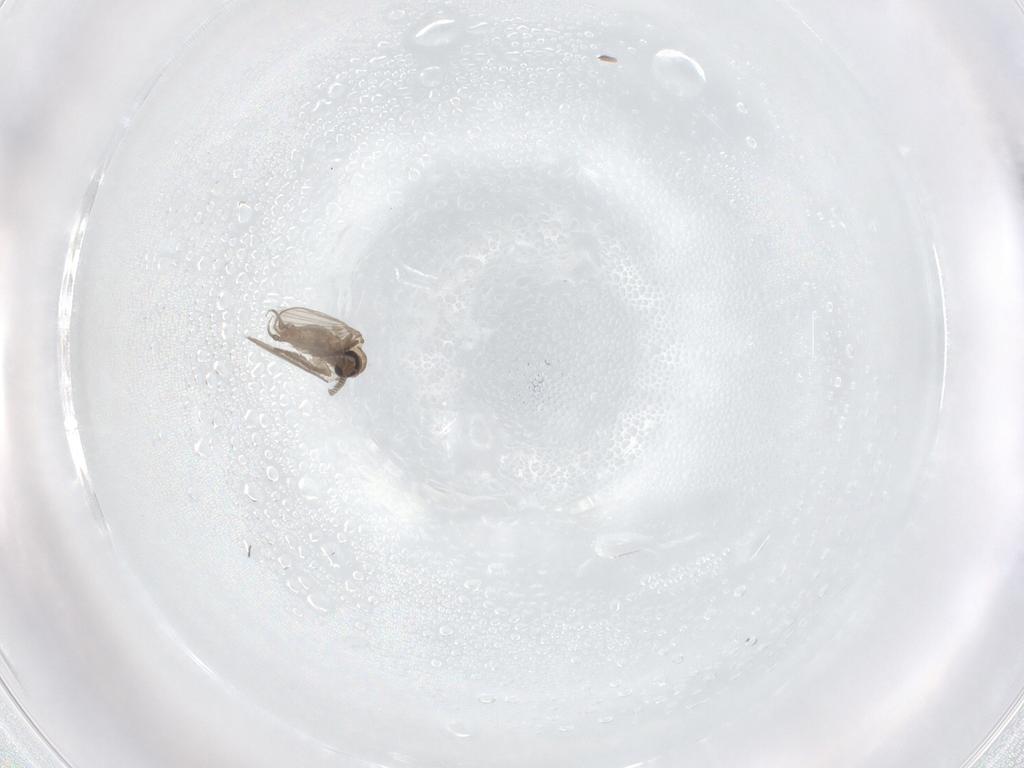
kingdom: Animalia
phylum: Arthropoda
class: Insecta
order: Diptera
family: Psychodidae
